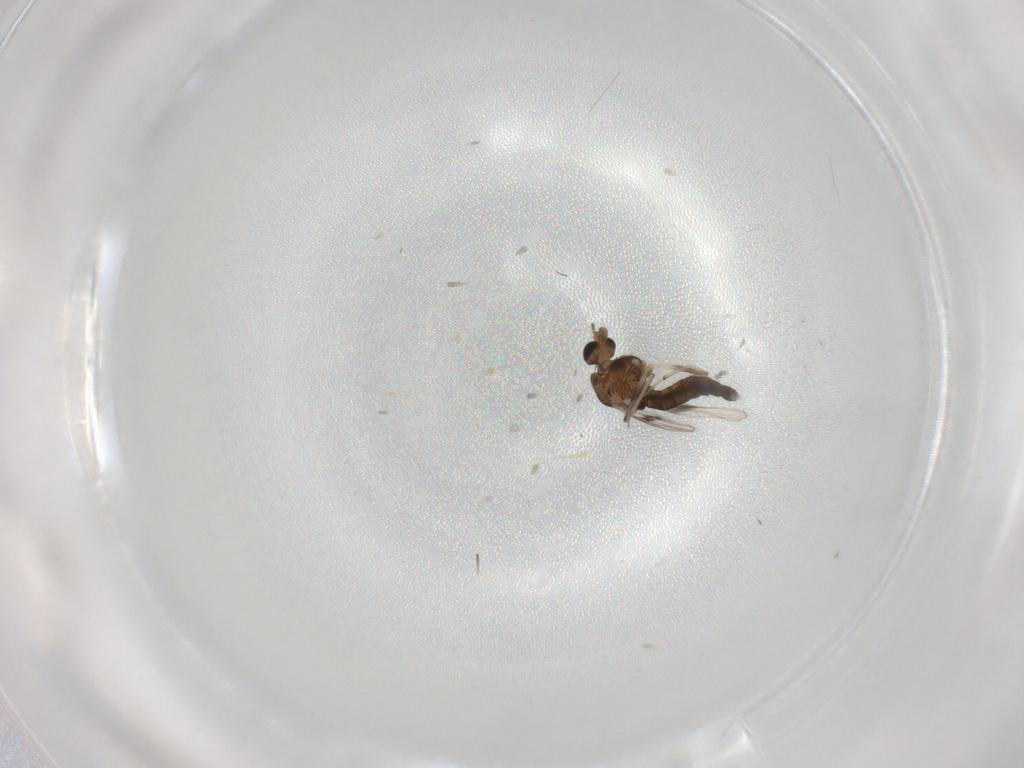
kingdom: Animalia
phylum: Arthropoda
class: Insecta
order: Diptera
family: Chironomidae
